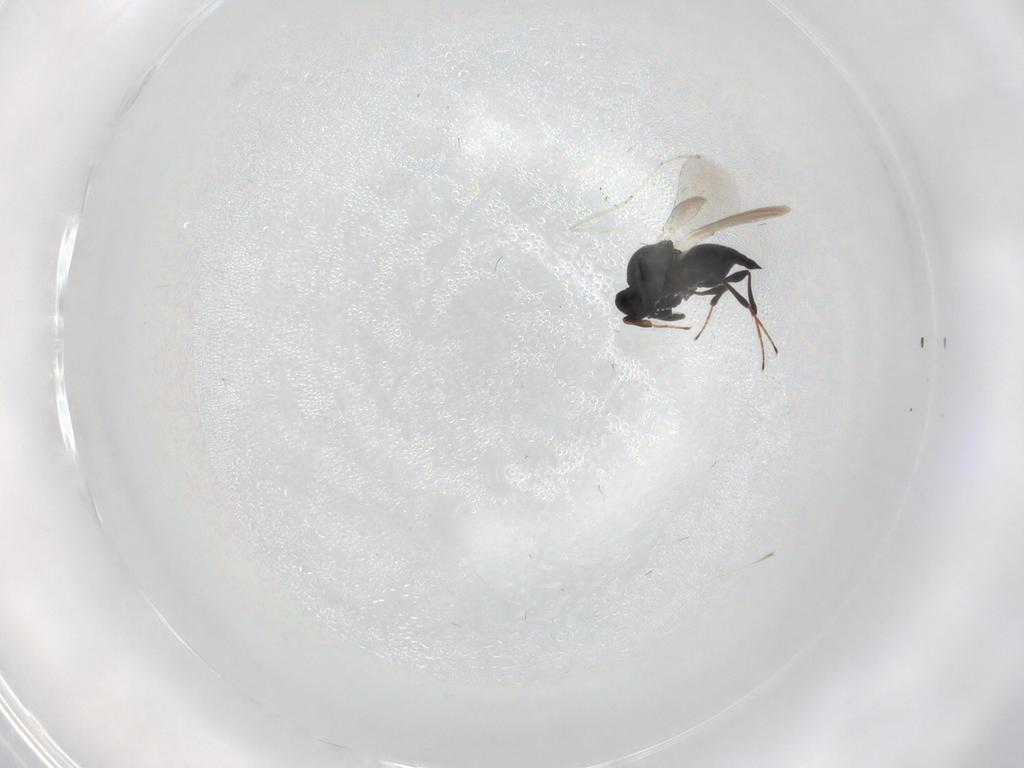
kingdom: Animalia
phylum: Arthropoda
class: Insecta
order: Hymenoptera
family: Platygastridae
